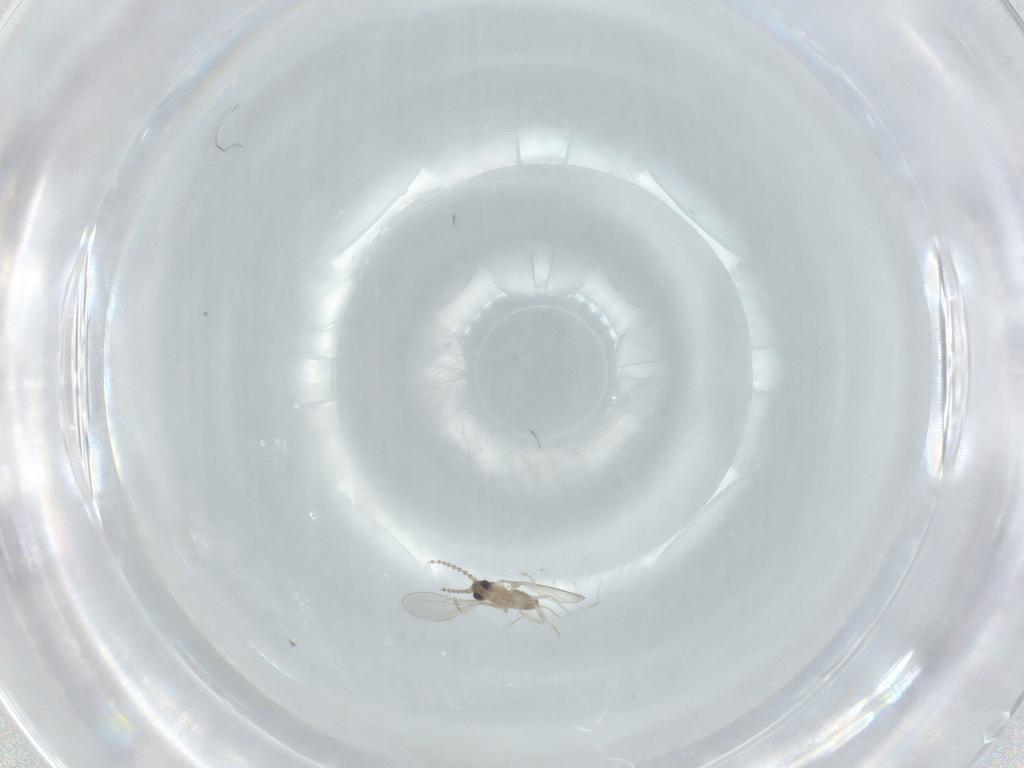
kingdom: Animalia
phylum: Arthropoda
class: Insecta
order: Diptera
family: Cecidomyiidae
